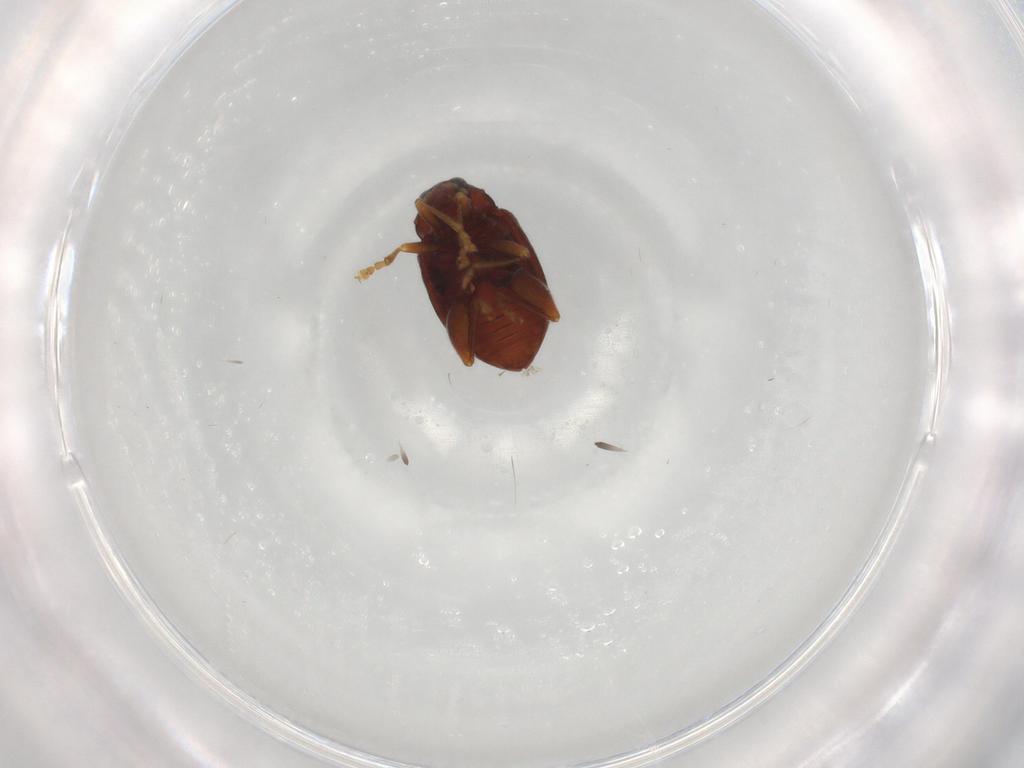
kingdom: Animalia
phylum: Arthropoda
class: Insecta
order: Coleoptera
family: Chrysomelidae
